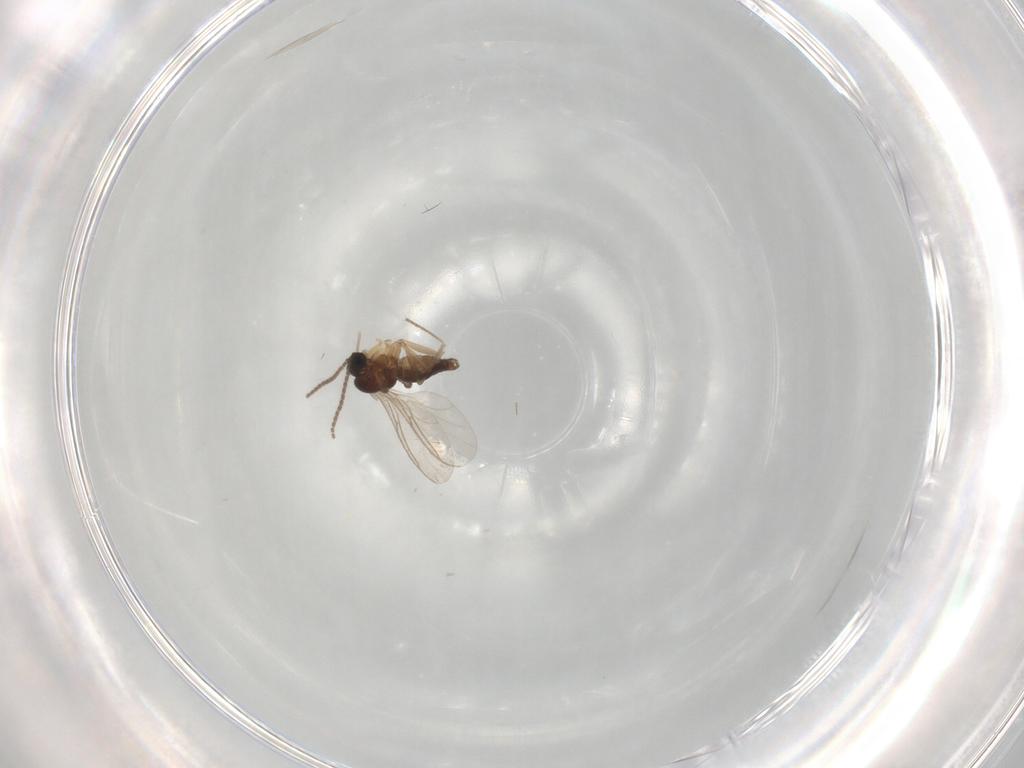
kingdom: Animalia
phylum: Arthropoda
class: Insecta
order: Diptera
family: Sciaridae
